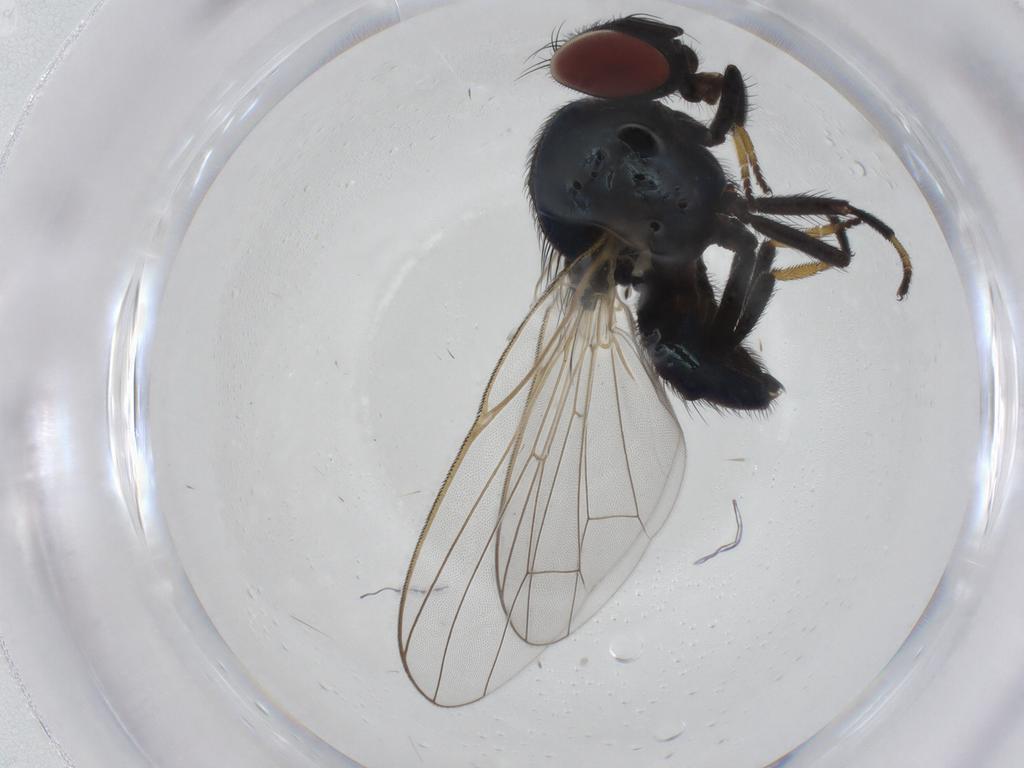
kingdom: Animalia
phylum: Arthropoda
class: Insecta
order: Diptera
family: Lonchaeidae
